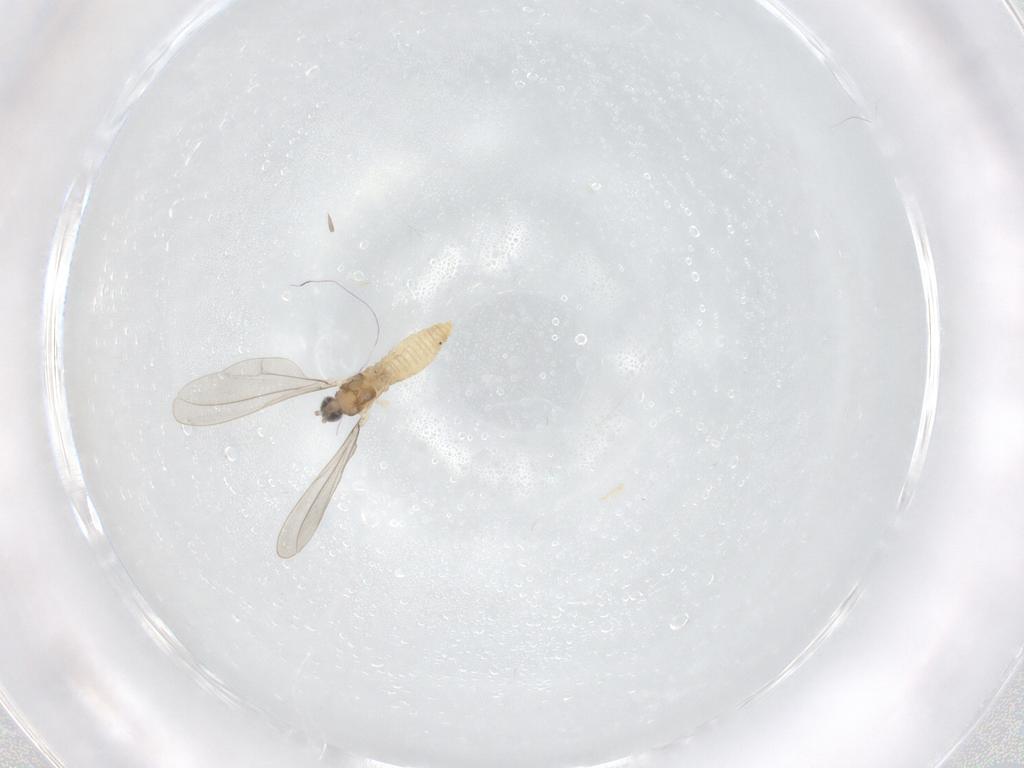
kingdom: Animalia
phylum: Arthropoda
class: Insecta
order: Diptera
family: Cecidomyiidae
